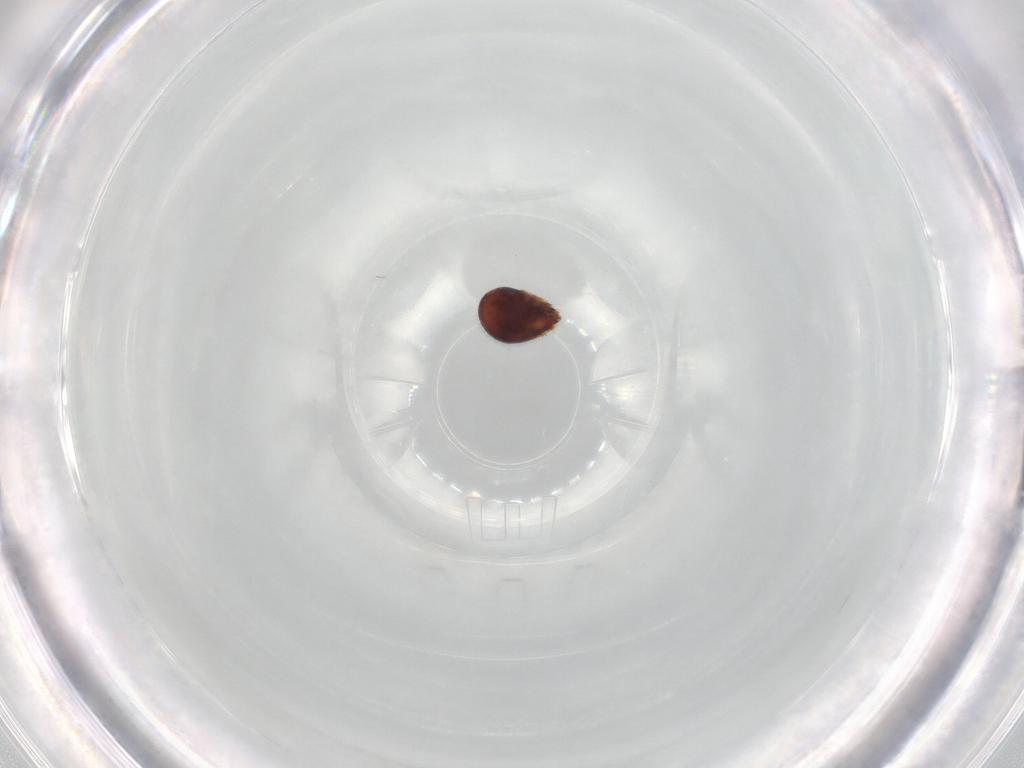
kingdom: Animalia
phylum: Arthropoda
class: Arachnida
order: Sarcoptiformes
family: Humerobatidae
